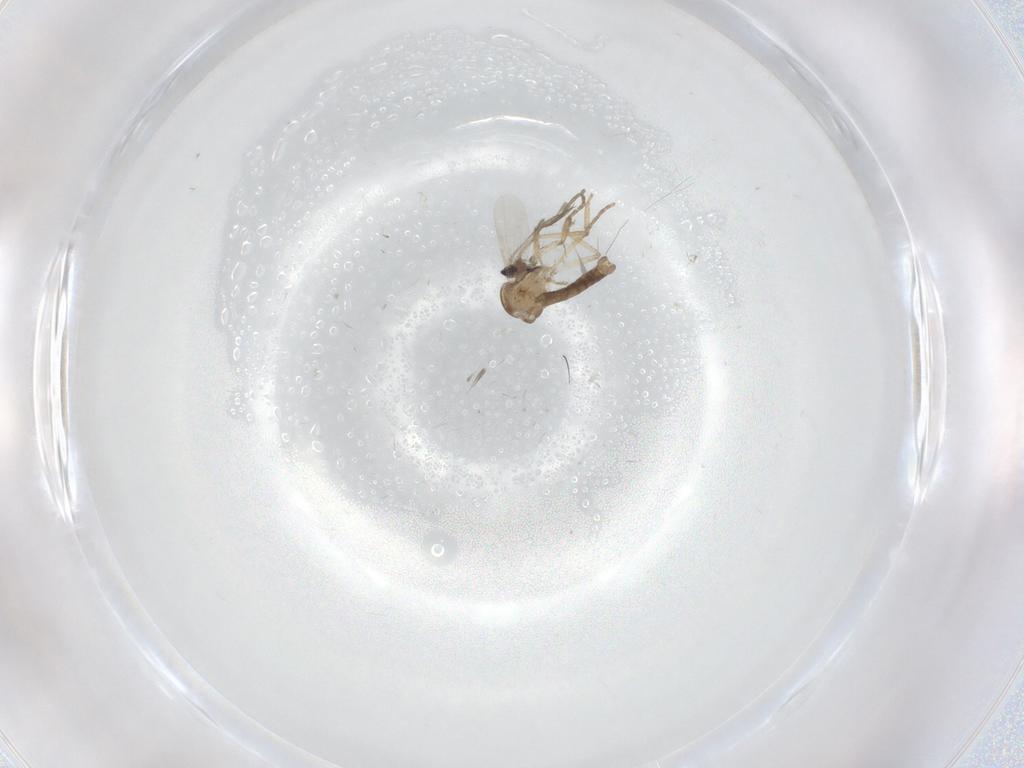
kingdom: Animalia
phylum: Arthropoda
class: Insecta
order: Diptera
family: Ceratopogonidae
